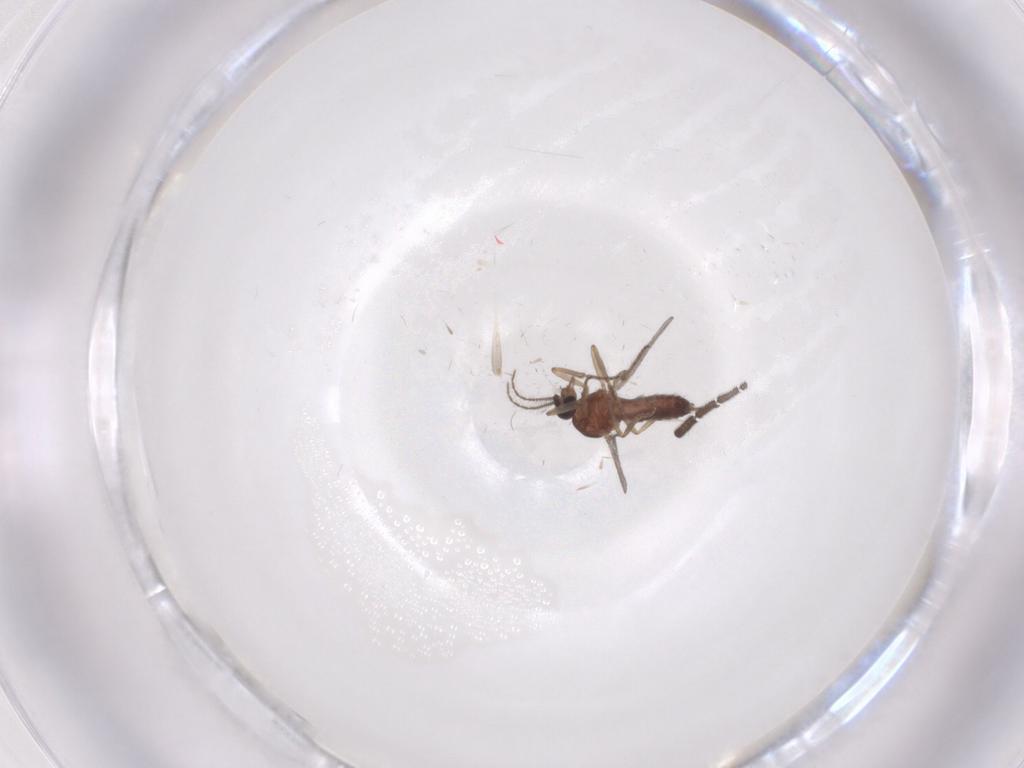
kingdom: Animalia
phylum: Arthropoda
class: Insecta
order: Diptera
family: Ceratopogonidae
